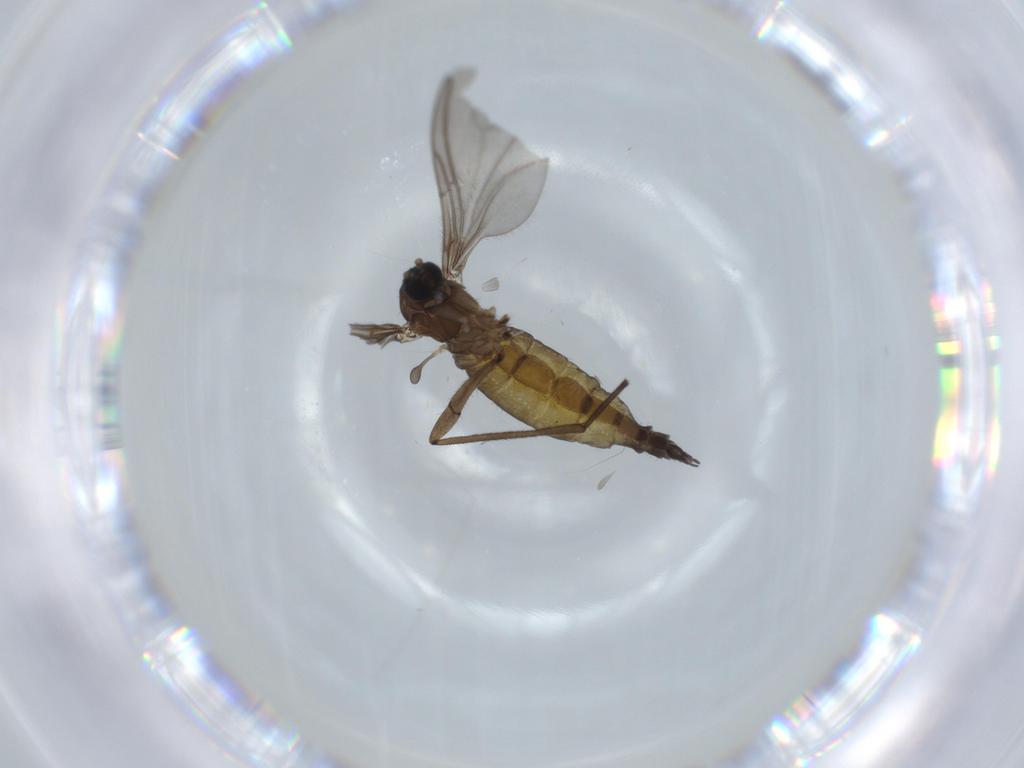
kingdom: Animalia
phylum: Arthropoda
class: Insecta
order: Diptera
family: Sciaridae
